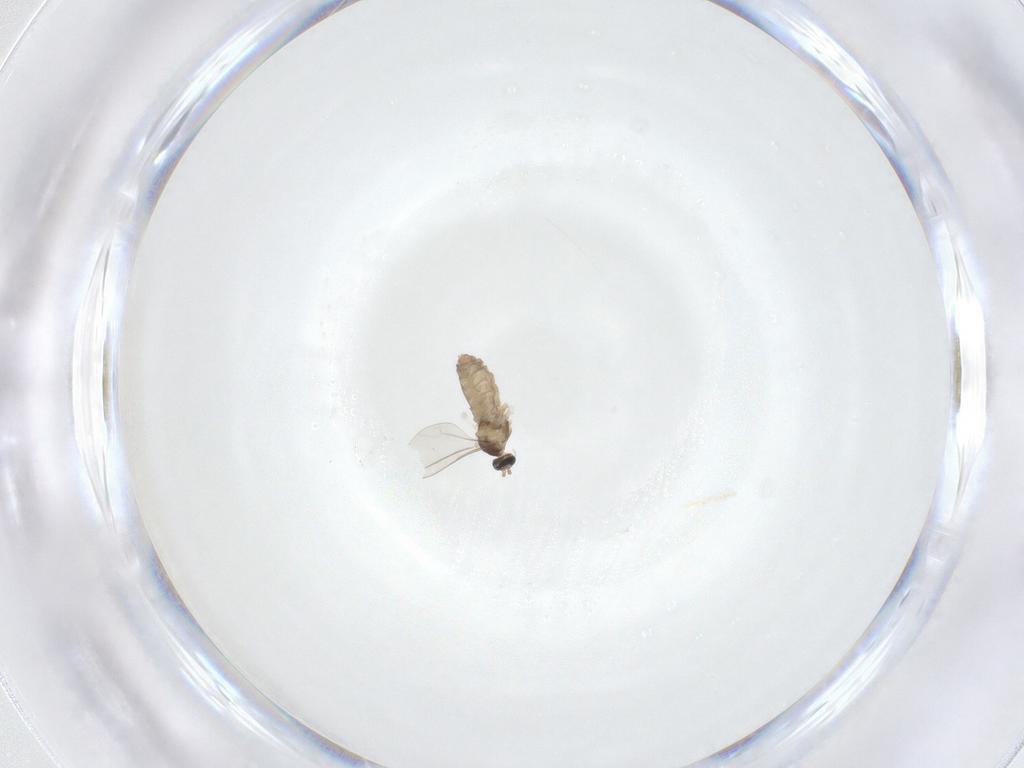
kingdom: Animalia
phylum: Arthropoda
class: Insecta
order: Diptera
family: Cecidomyiidae
